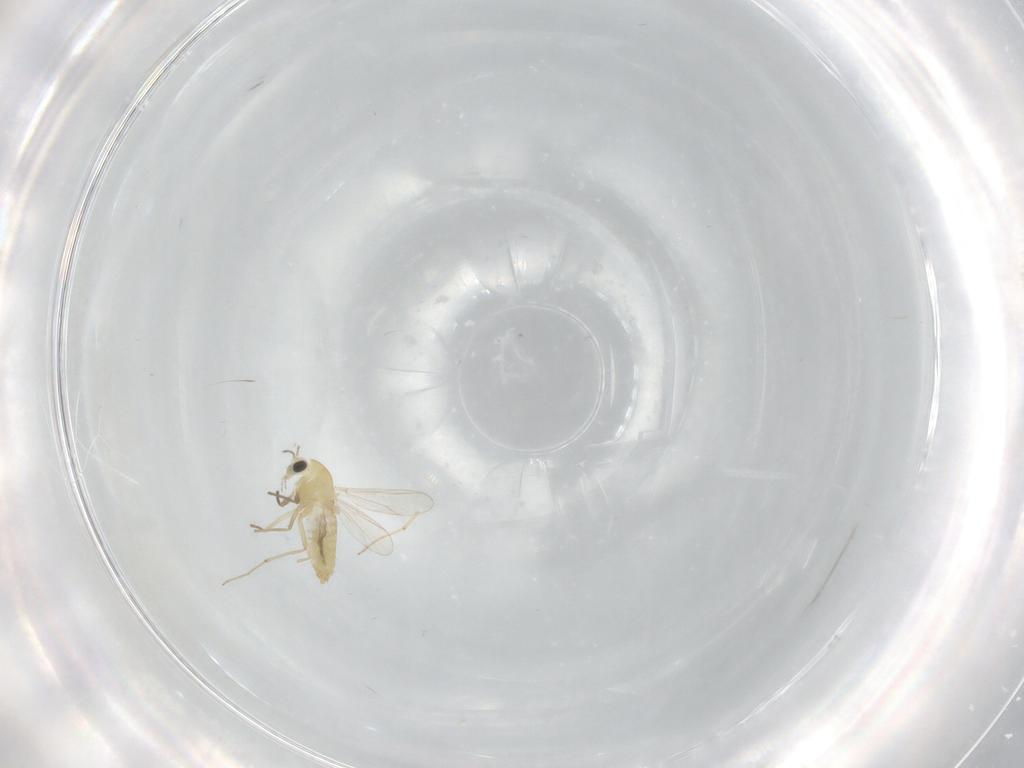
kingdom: Animalia
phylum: Arthropoda
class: Insecta
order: Diptera
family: Chironomidae
